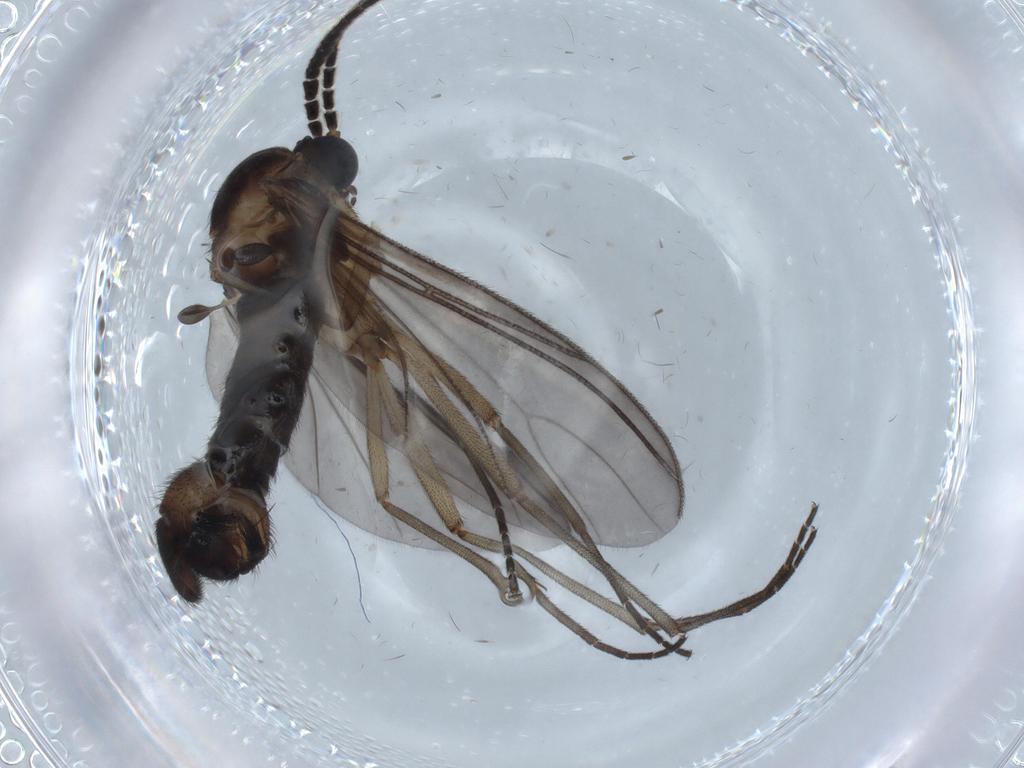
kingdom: Animalia
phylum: Arthropoda
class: Insecta
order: Diptera
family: Sciaridae
